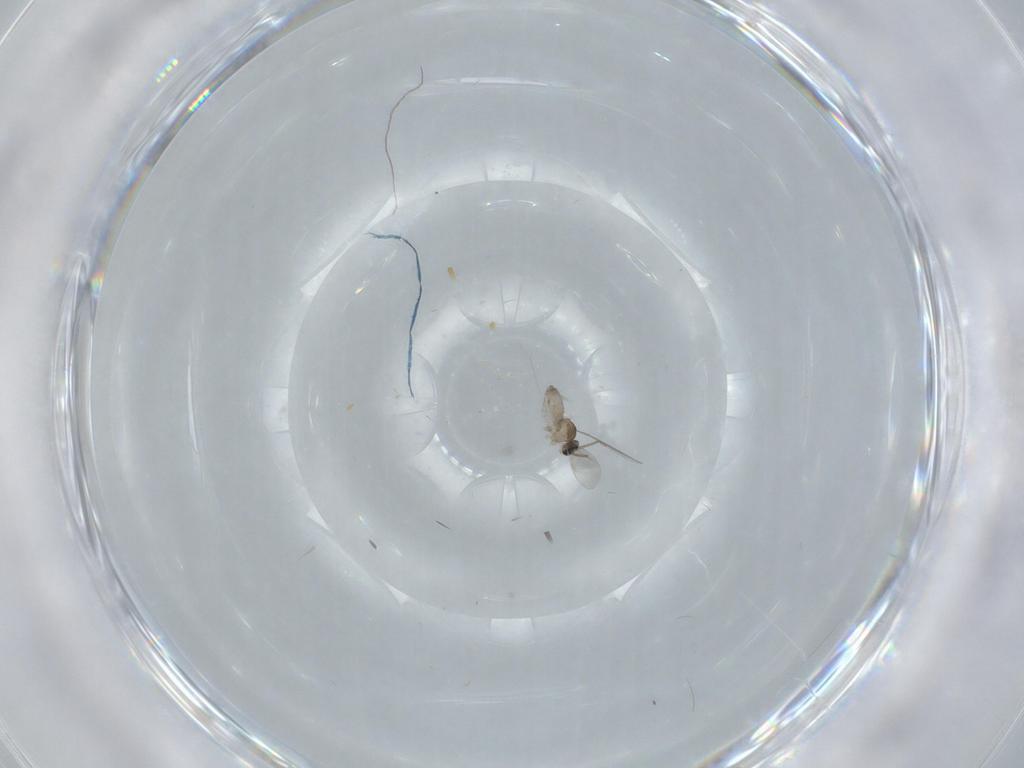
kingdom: Animalia
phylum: Arthropoda
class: Insecta
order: Diptera
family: Cecidomyiidae
